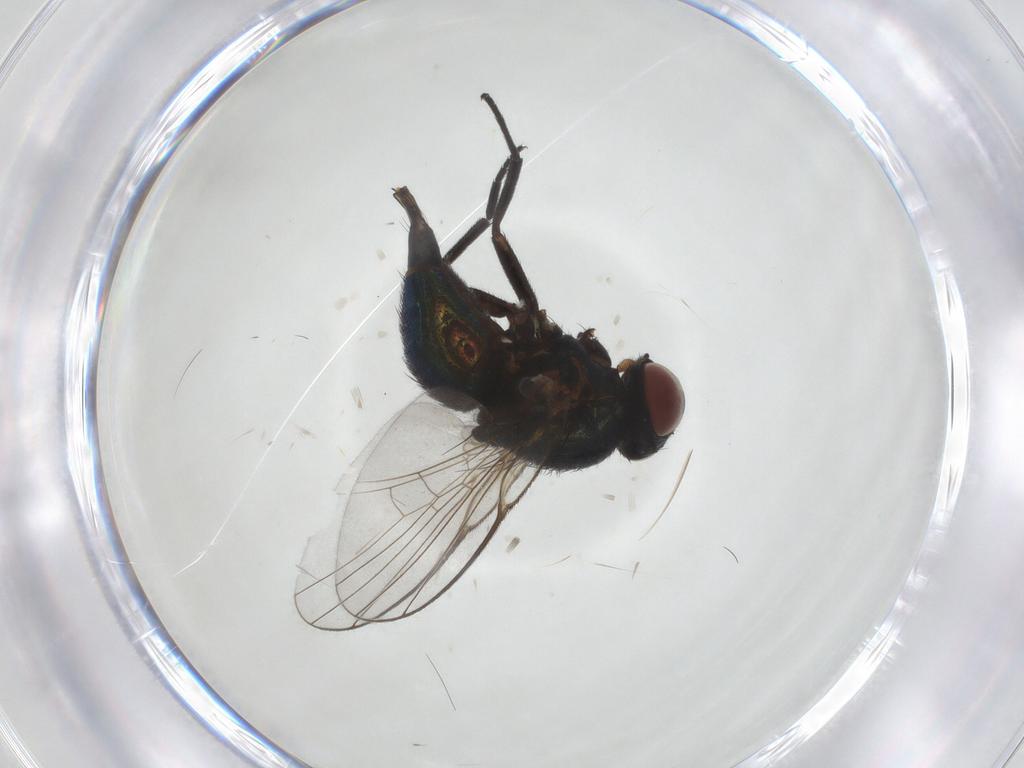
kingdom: Animalia
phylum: Arthropoda
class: Insecta
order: Diptera
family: Agromyzidae
